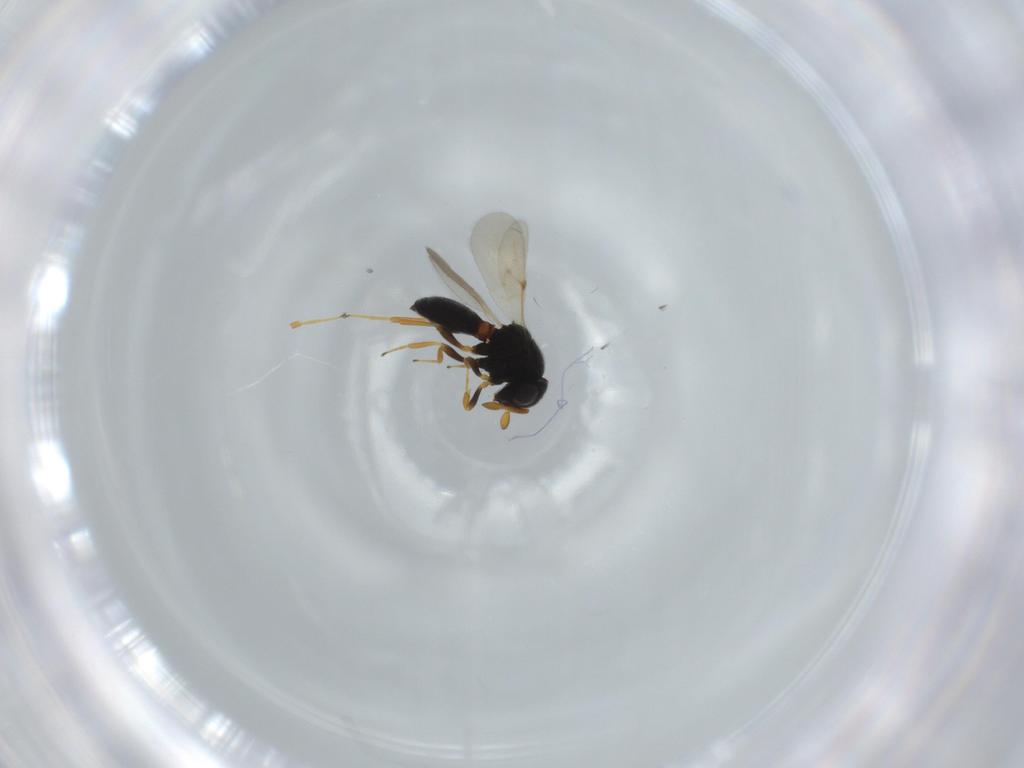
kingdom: Animalia
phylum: Arthropoda
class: Insecta
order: Hymenoptera
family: Scelionidae
